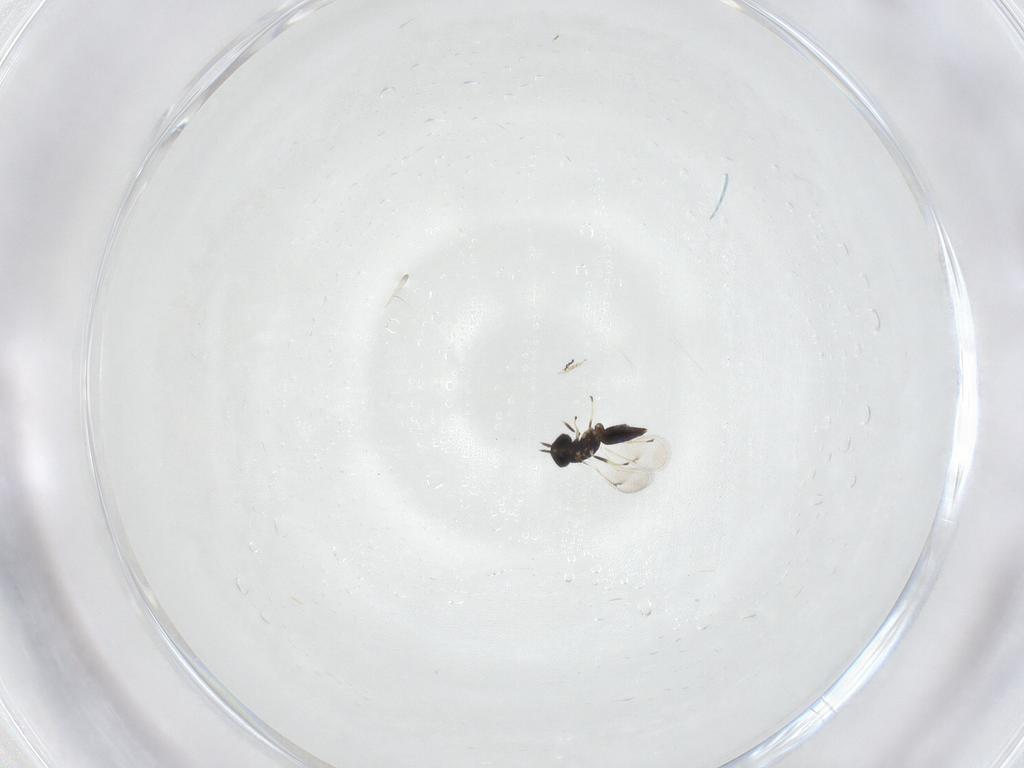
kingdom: Animalia
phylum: Arthropoda
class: Insecta
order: Hymenoptera
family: Eulophidae
